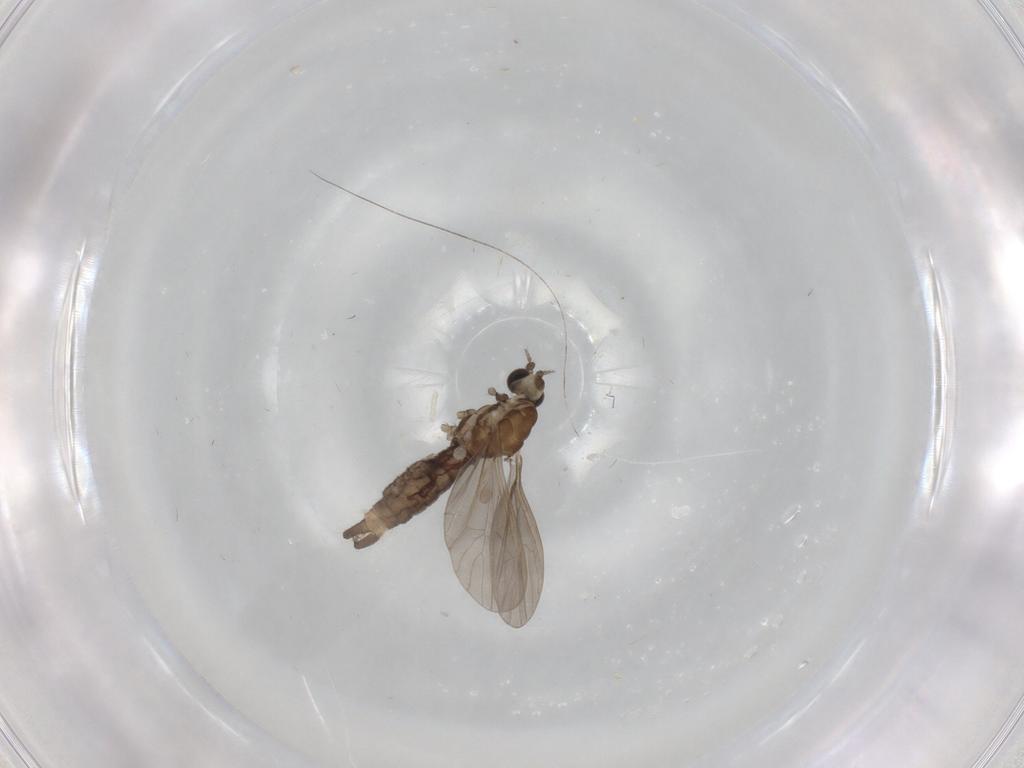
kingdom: Animalia
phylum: Arthropoda
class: Insecta
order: Diptera
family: Limoniidae
